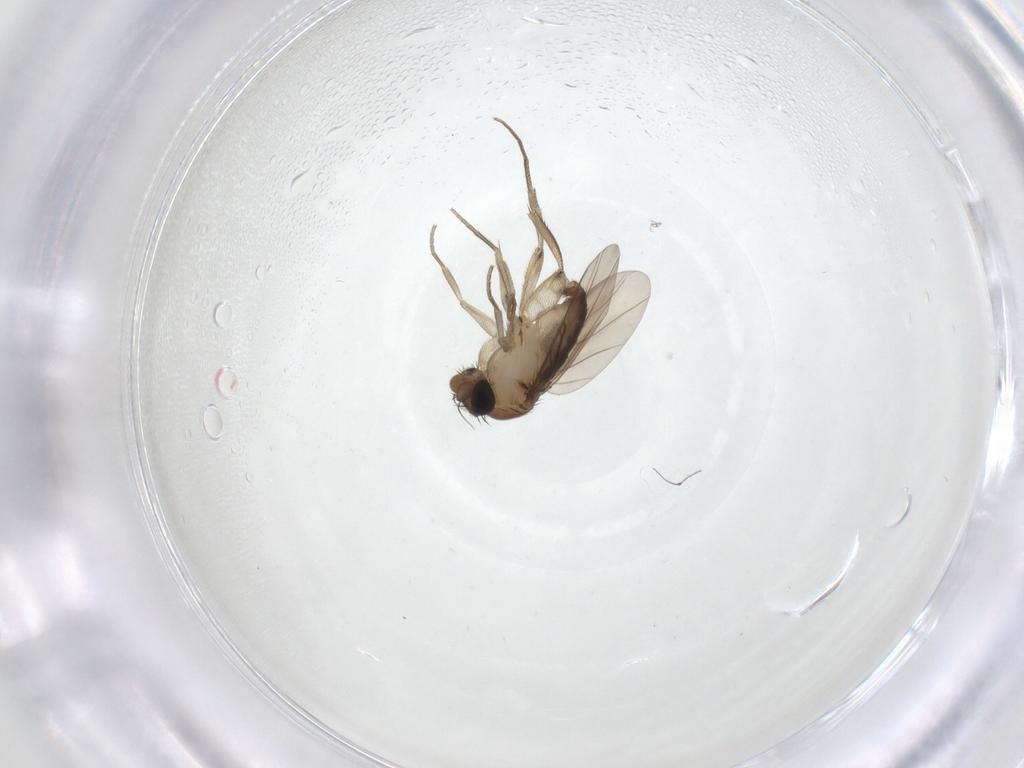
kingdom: Animalia
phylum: Arthropoda
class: Insecta
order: Diptera
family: Phoridae
